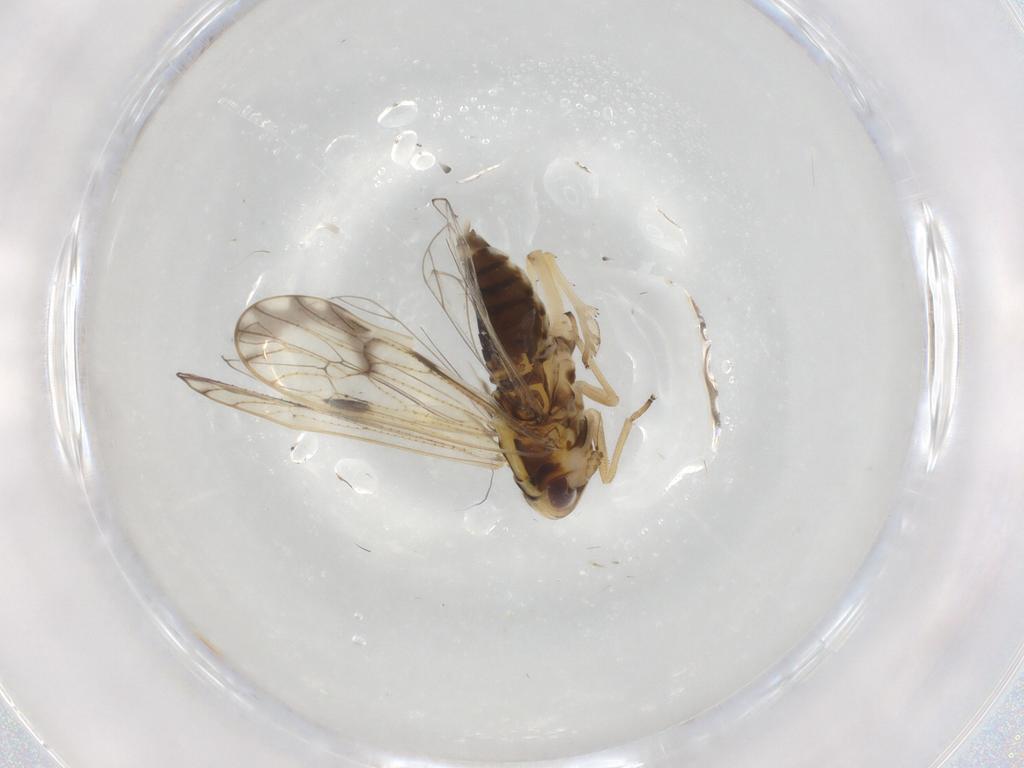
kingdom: Animalia
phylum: Arthropoda
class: Insecta
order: Hemiptera
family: Delphacidae
